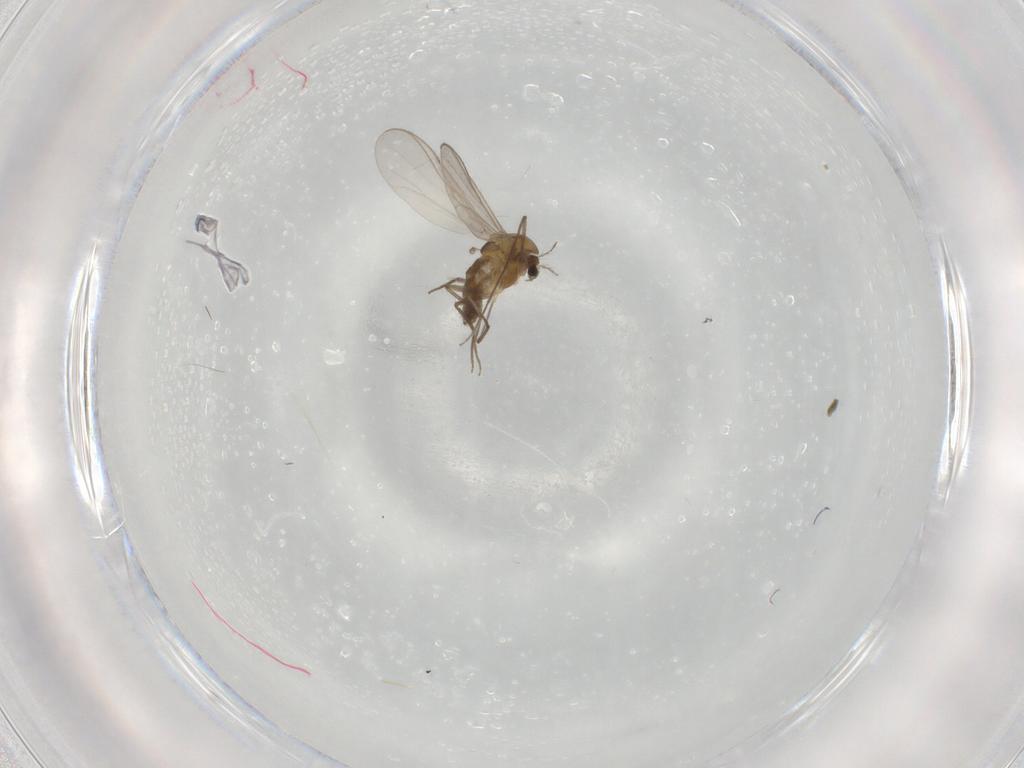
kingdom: Animalia
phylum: Arthropoda
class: Insecta
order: Diptera
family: Chironomidae
